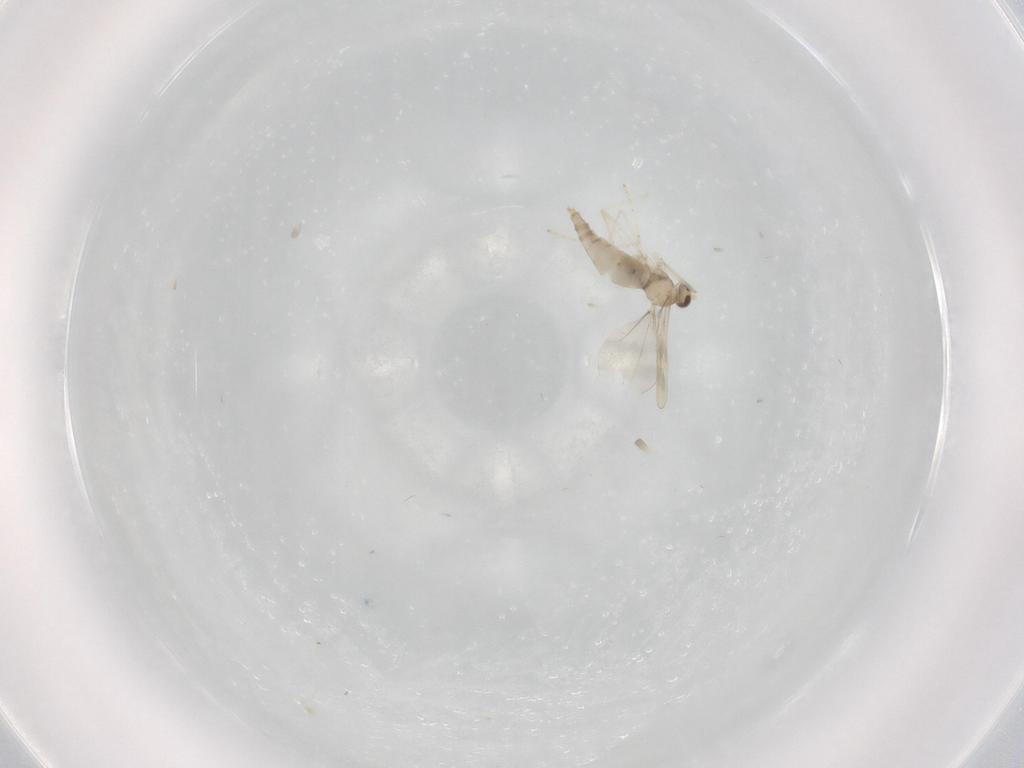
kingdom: Animalia
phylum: Arthropoda
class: Insecta
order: Diptera
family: Cecidomyiidae
